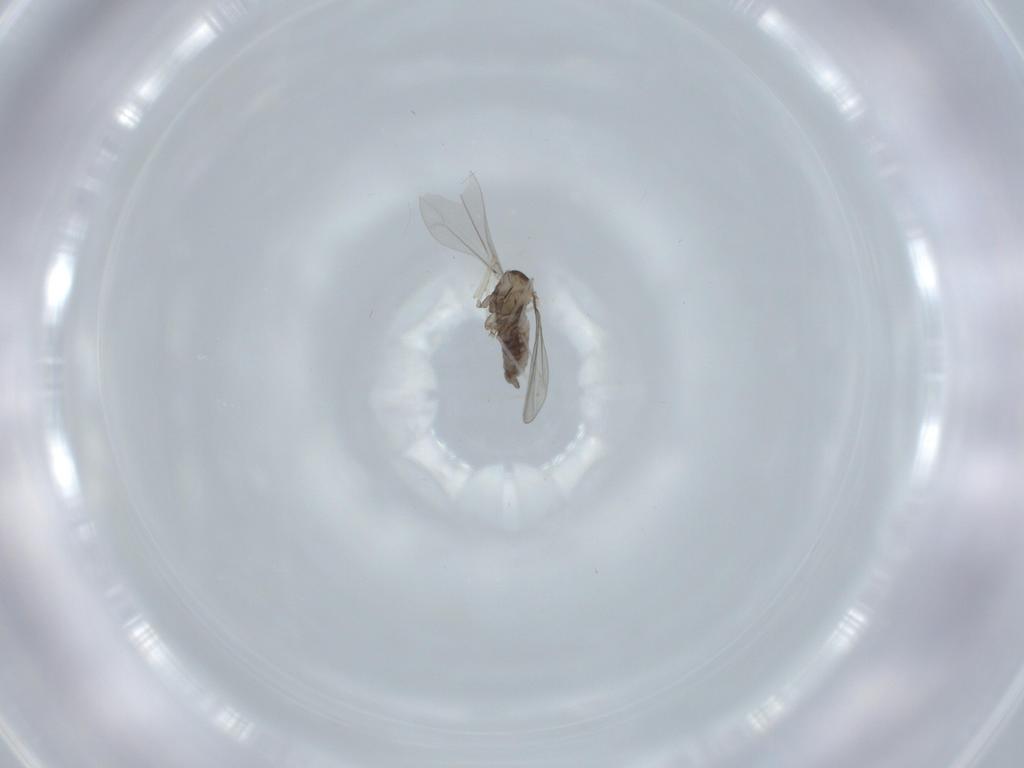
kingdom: Animalia
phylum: Arthropoda
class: Insecta
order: Diptera
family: Cecidomyiidae
